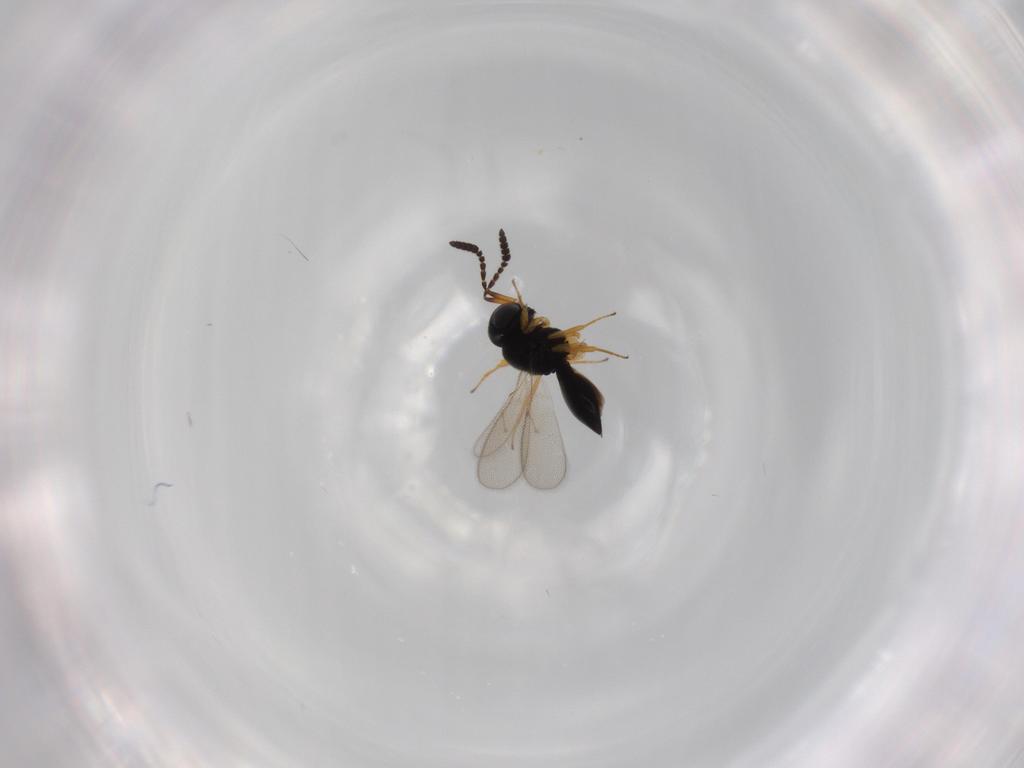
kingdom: Animalia
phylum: Arthropoda
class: Insecta
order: Hymenoptera
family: Scelionidae
